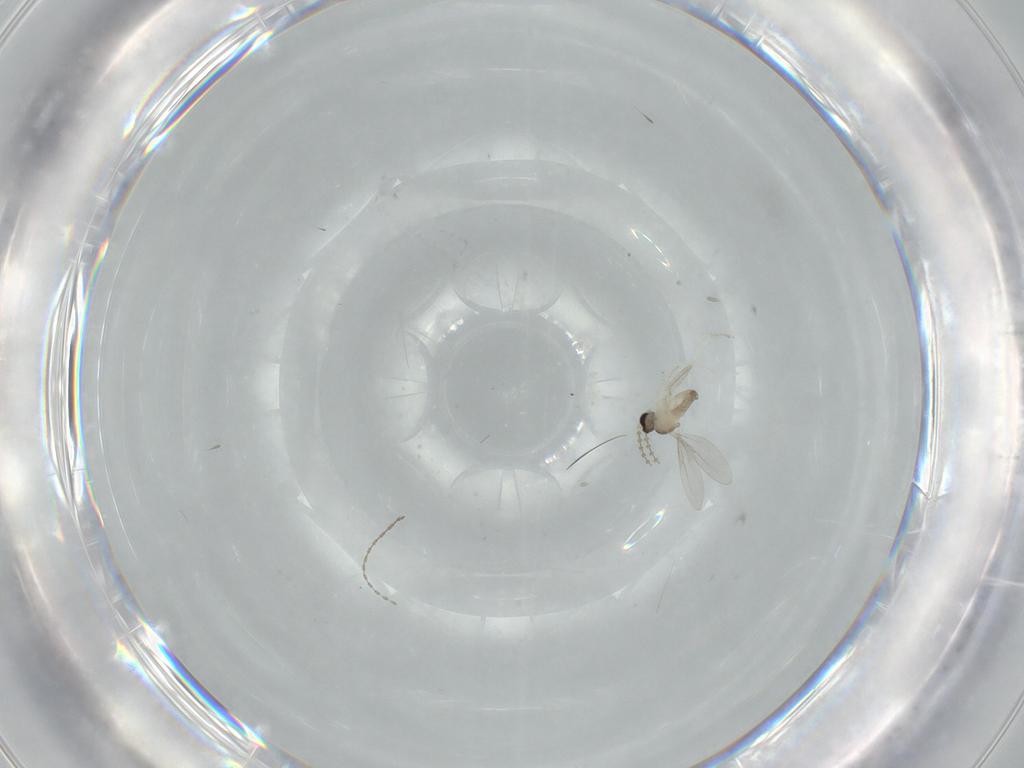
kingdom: Animalia
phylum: Arthropoda
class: Insecta
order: Diptera
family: Cecidomyiidae
